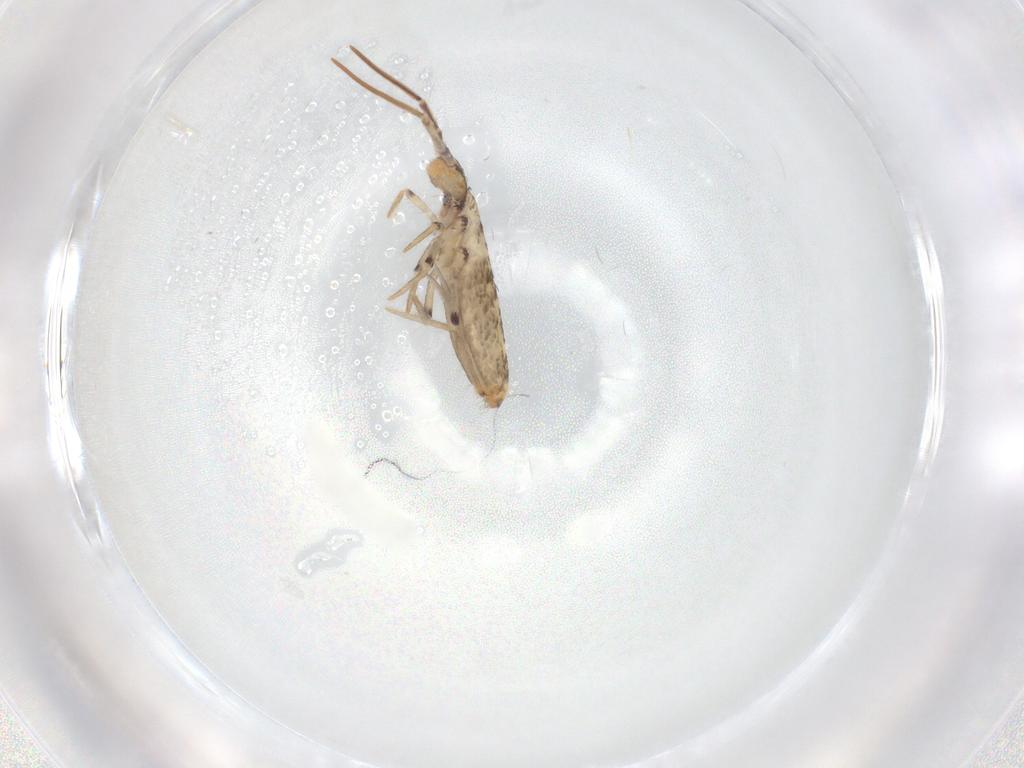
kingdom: Animalia
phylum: Arthropoda
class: Collembola
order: Entomobryomorpha
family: Entomobryidae
